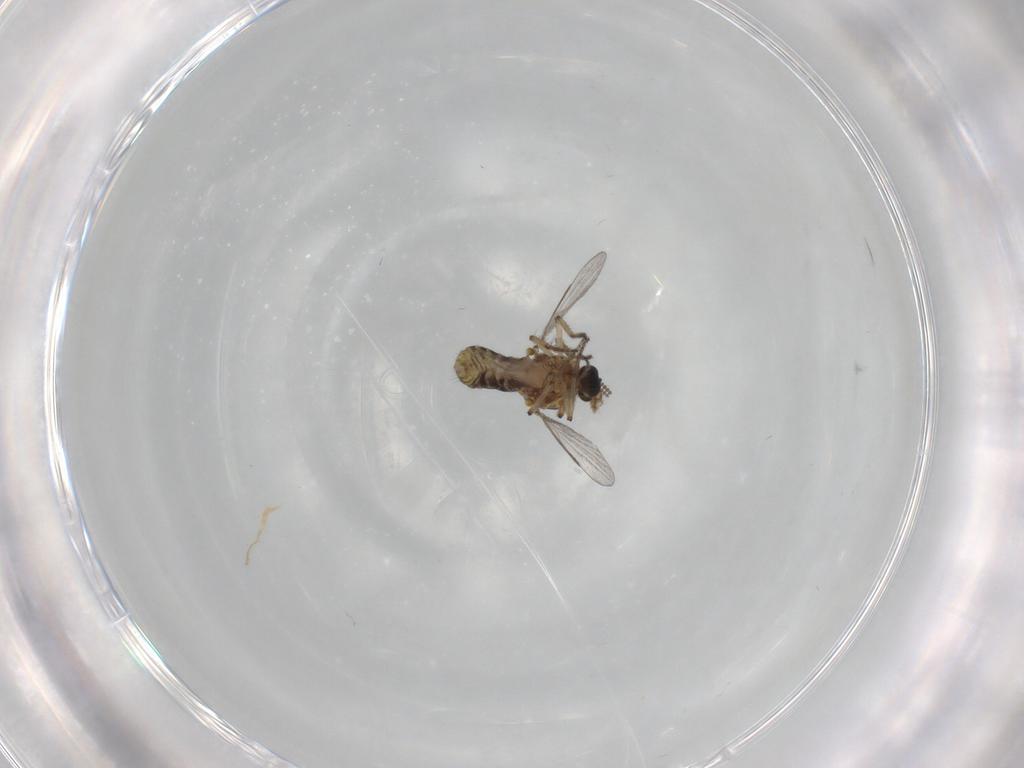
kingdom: Animalia
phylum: Arthropoda
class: Insecta
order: Diptera
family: Ceratopogonidae
